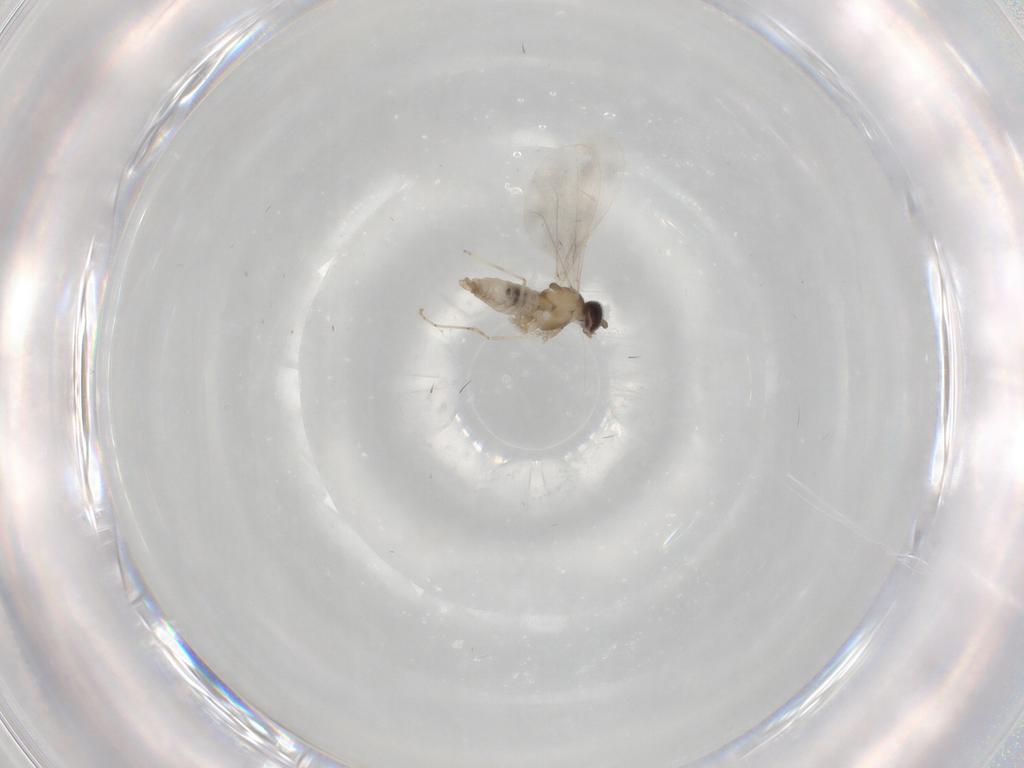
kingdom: Animalia
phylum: Arthropoda
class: Insecta
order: Diptera
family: Cecidomyiidae
